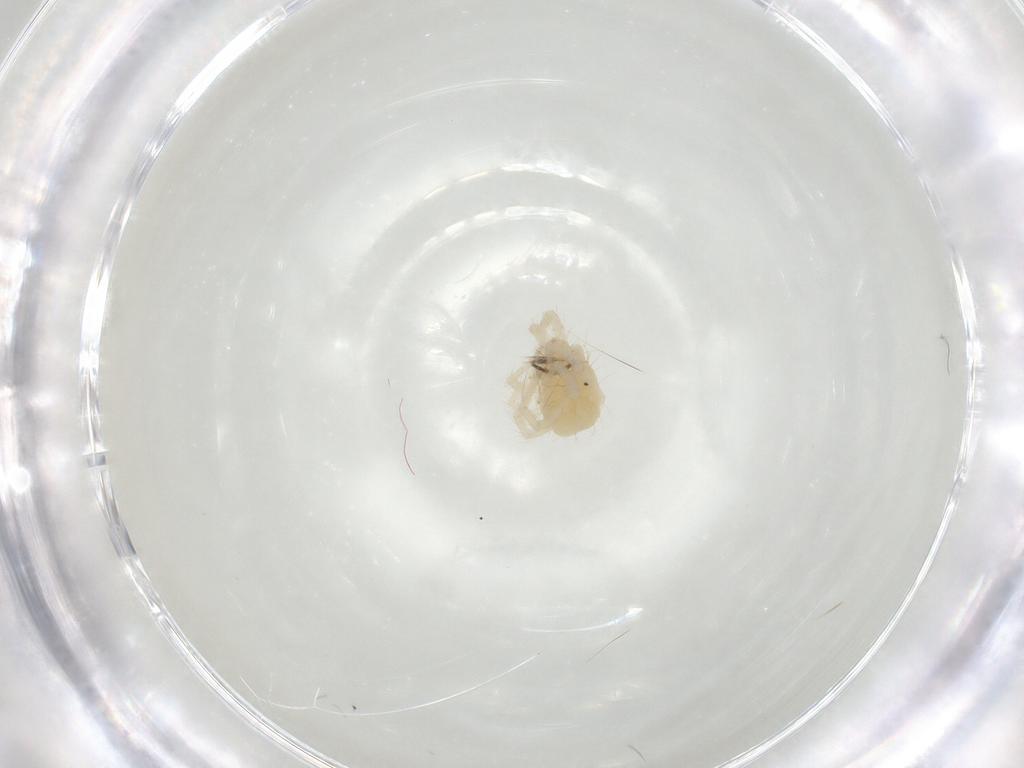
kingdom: Animalia
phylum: Arthropoda
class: Arachnida
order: Trombidiformes
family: Anystidae
